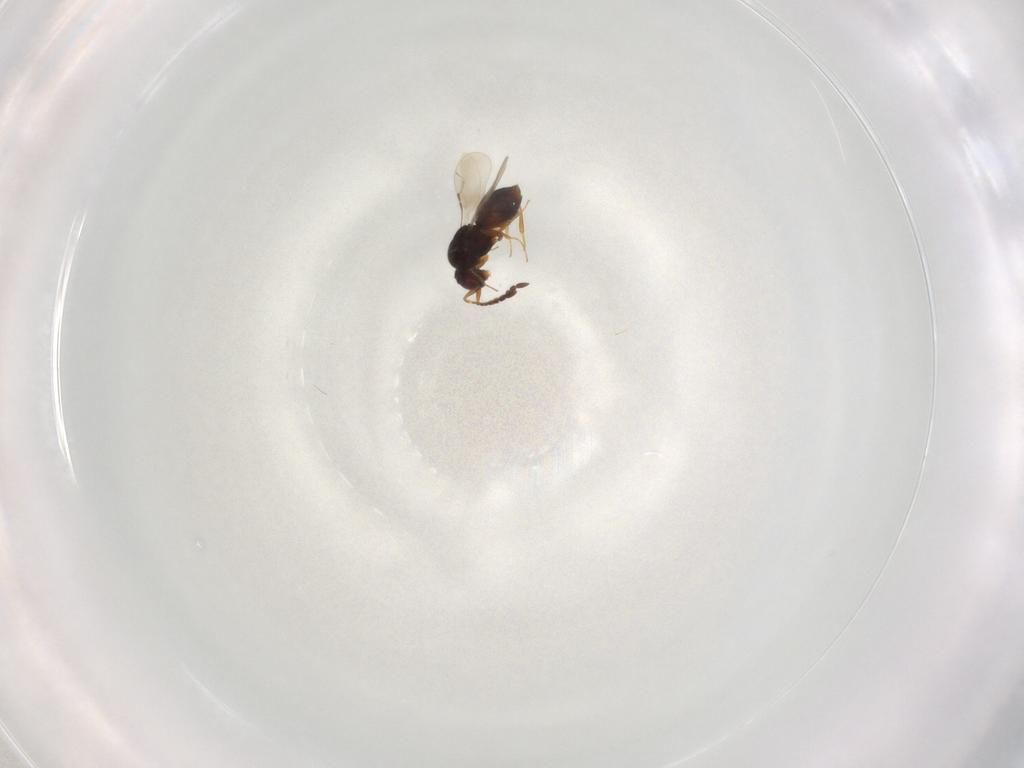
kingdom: Animalia
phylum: Arthropoda
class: Insecta
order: Hymenoptera
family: Ceraphronidae
